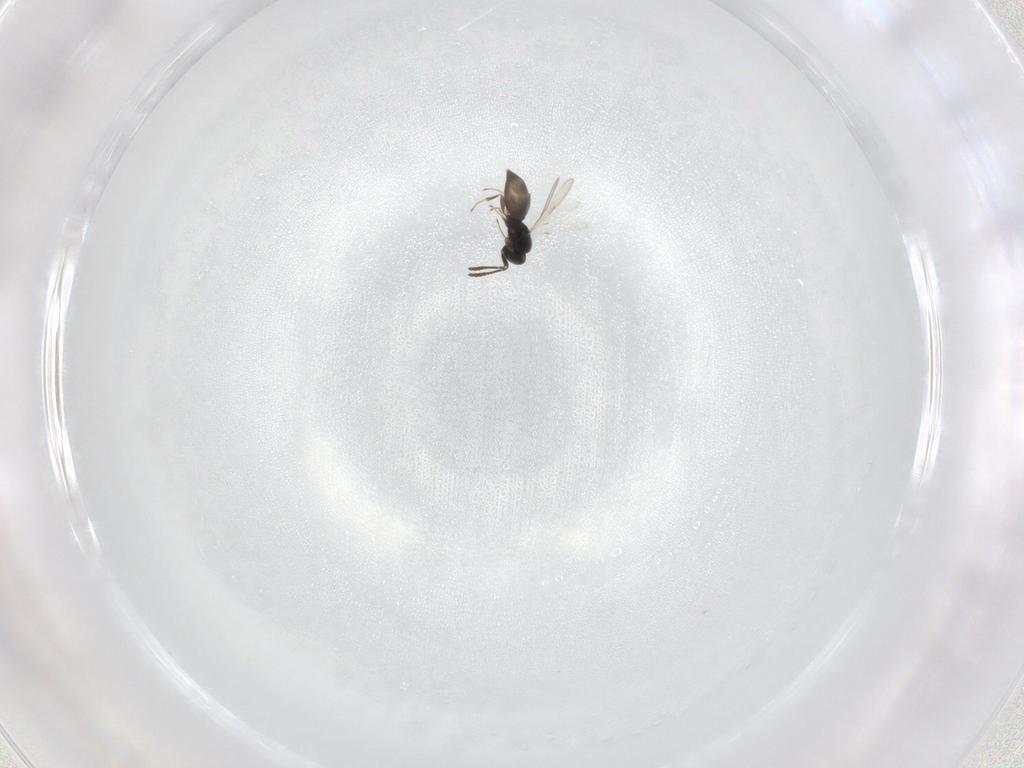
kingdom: Animalia
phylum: Arthropoda
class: Insecta
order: Hymenoptera
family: Scelionidae
